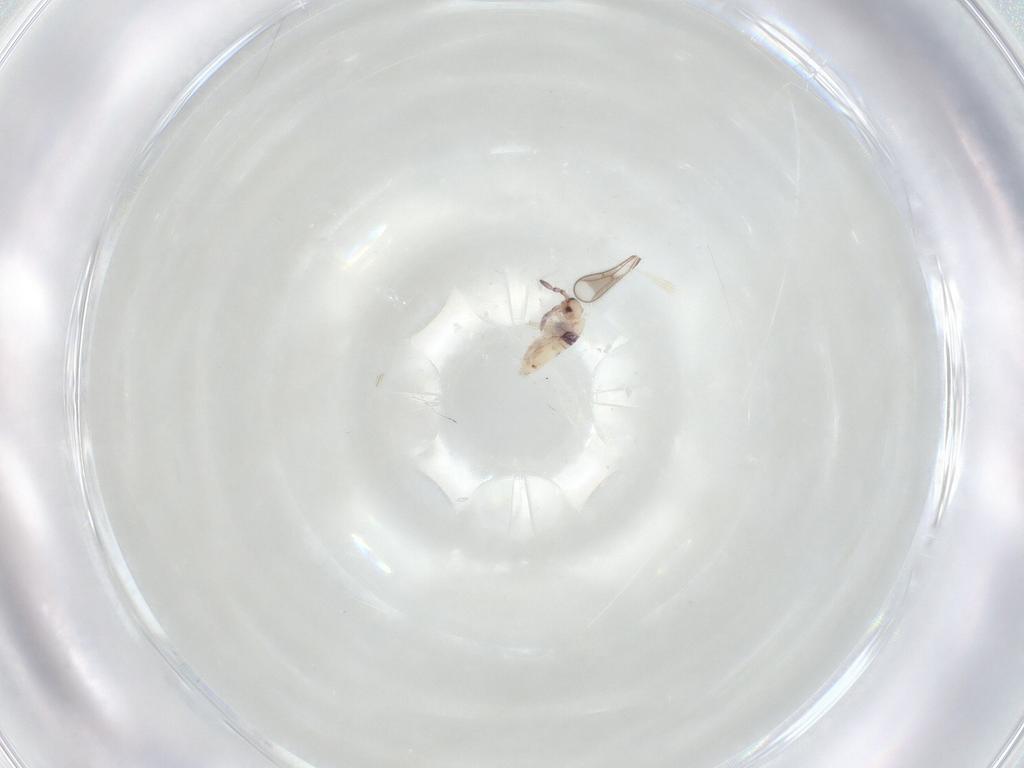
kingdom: Animalia
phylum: Arthropoda
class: Collembola
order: Entomobryomorpha
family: Entomobryidae
